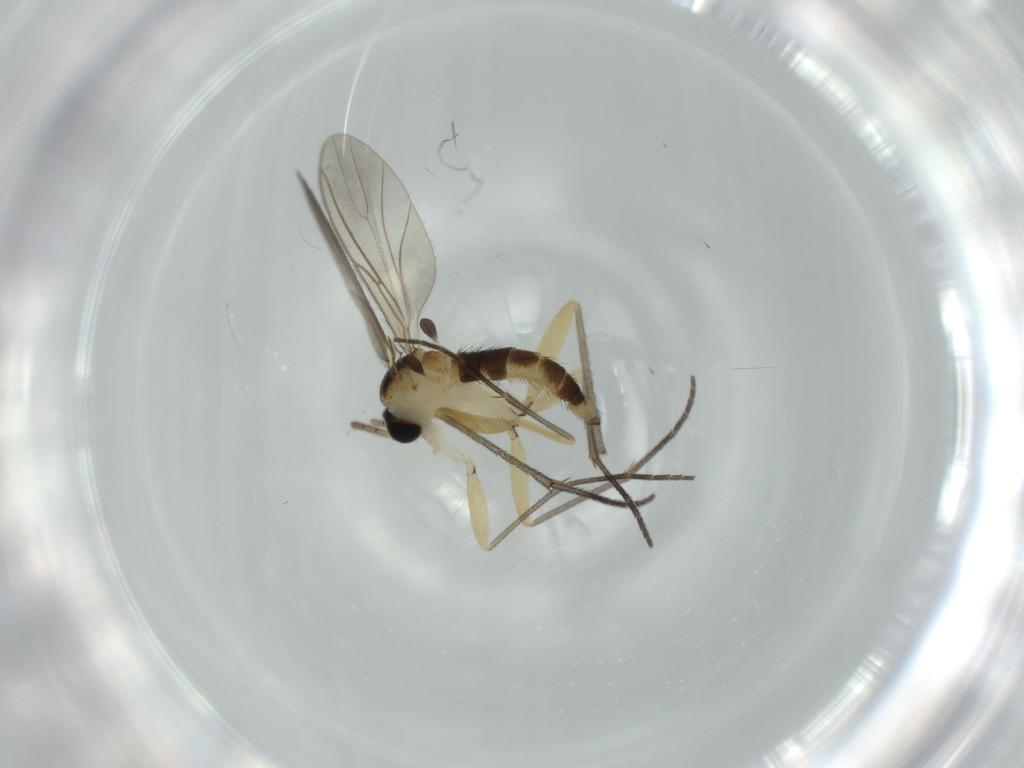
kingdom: Animalia
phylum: Arthropoda
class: Insecta
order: Diptera
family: Sciaridae
